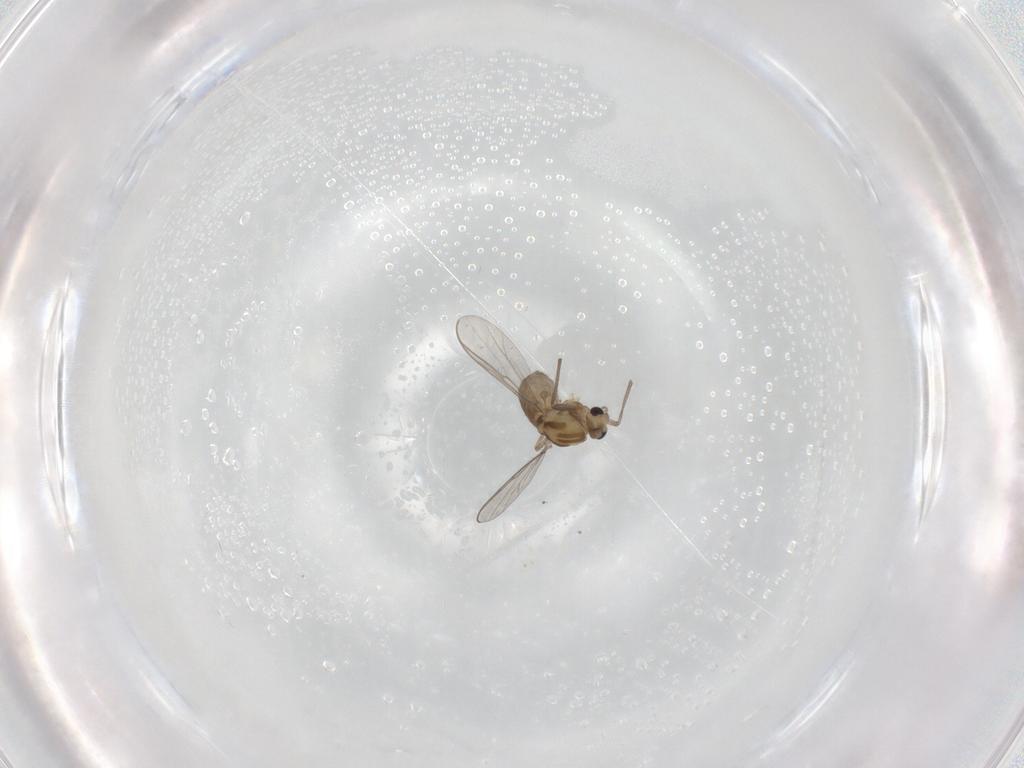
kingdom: Animalia
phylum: Arthropoda
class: Insecta
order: Diptera
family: Chironomidae
